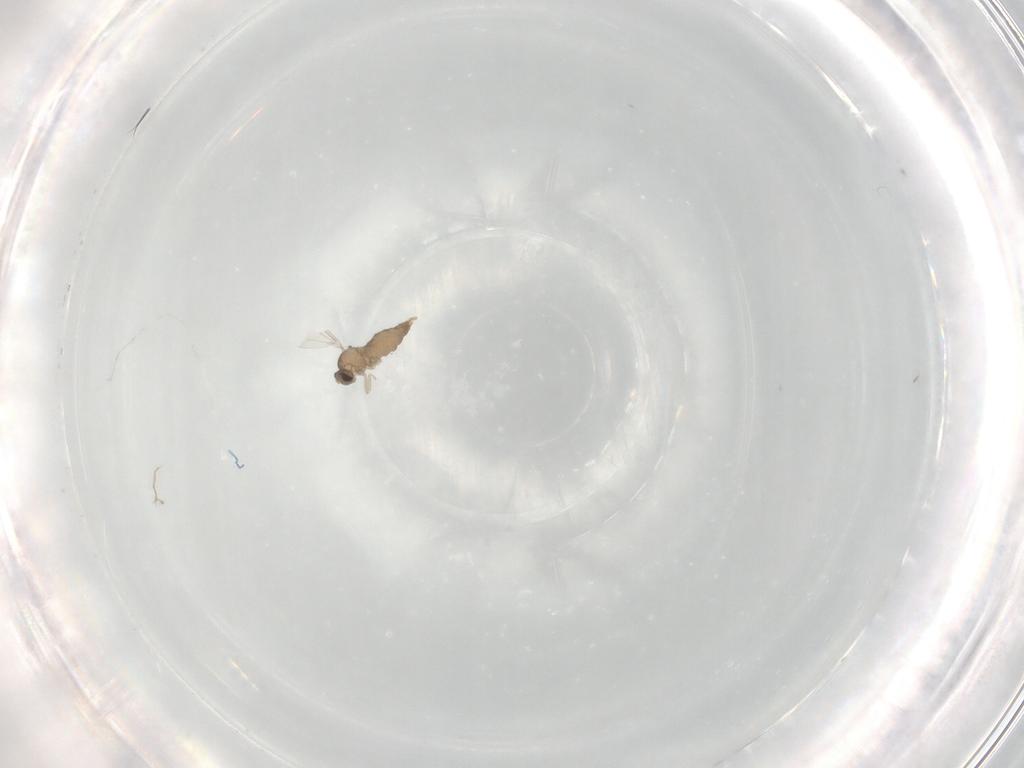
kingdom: Animalia
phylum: Arthropoda
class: Insecta
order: Diptera
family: Cecidomyiidae
